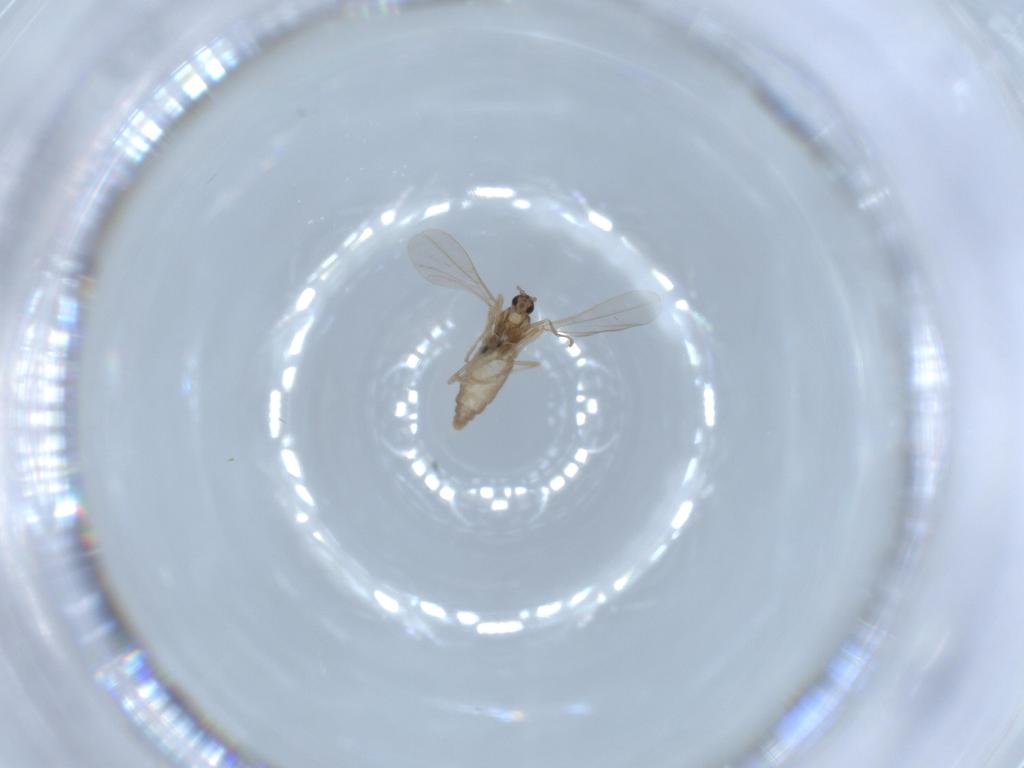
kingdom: Animalia
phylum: Arthropoda
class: Insecta
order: Diptera
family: Cecidomyiidae
